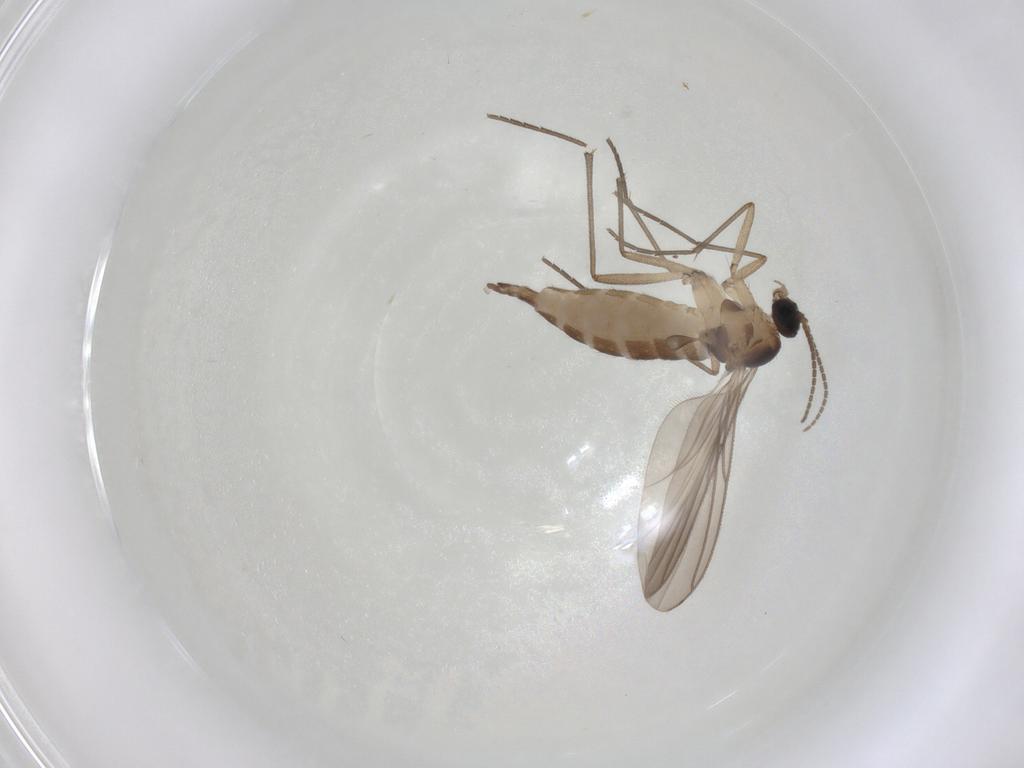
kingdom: Animalia
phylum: Arthropoda
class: Insecta
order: Diptera
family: Sciaridae
